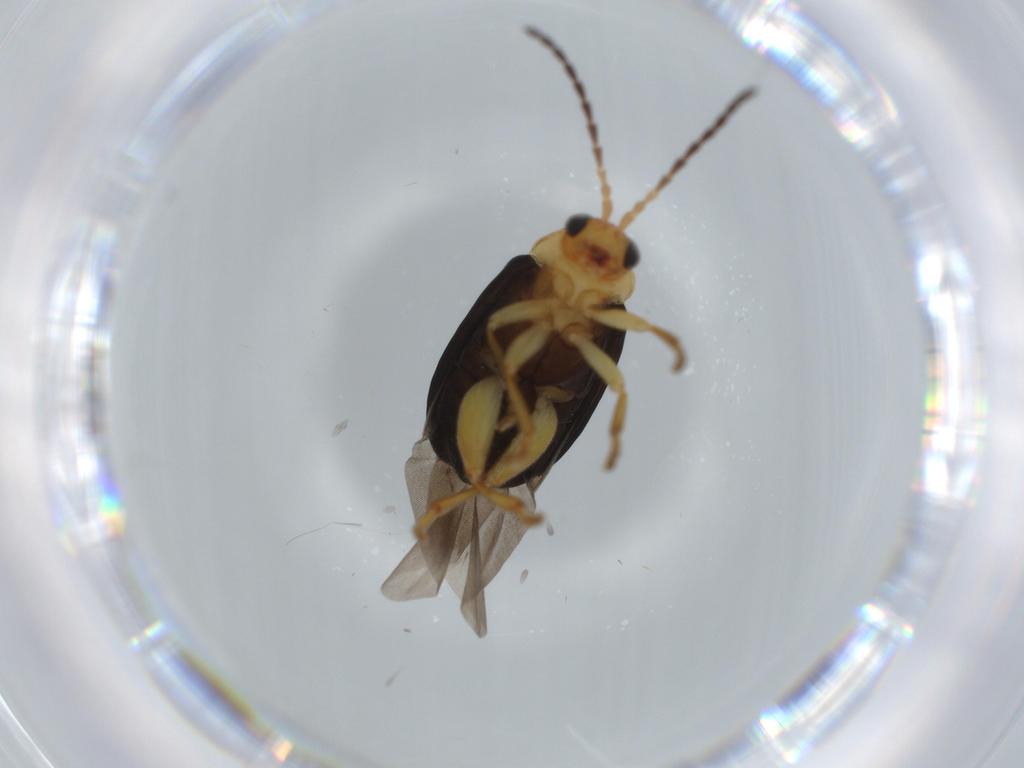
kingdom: Animalia
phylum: Arthropoda
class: Insecta
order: Coleoptera
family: Chrysomelidae
